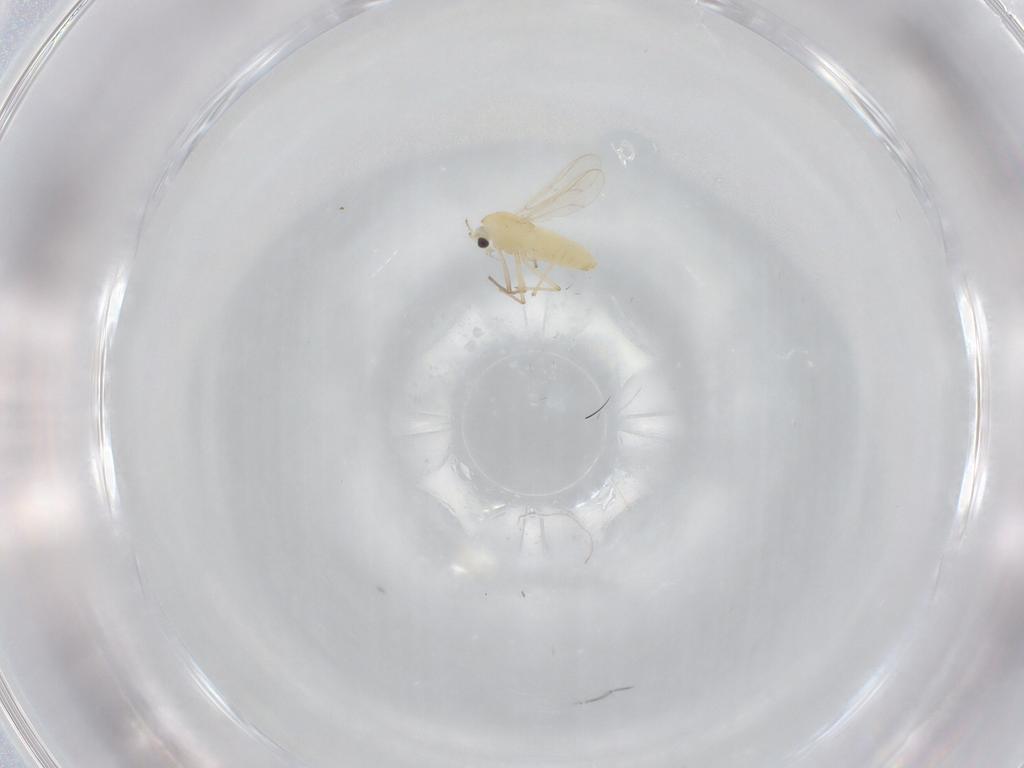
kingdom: Animalia
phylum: Arthropoda
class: Insecta
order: Diptera
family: Chironomidae
